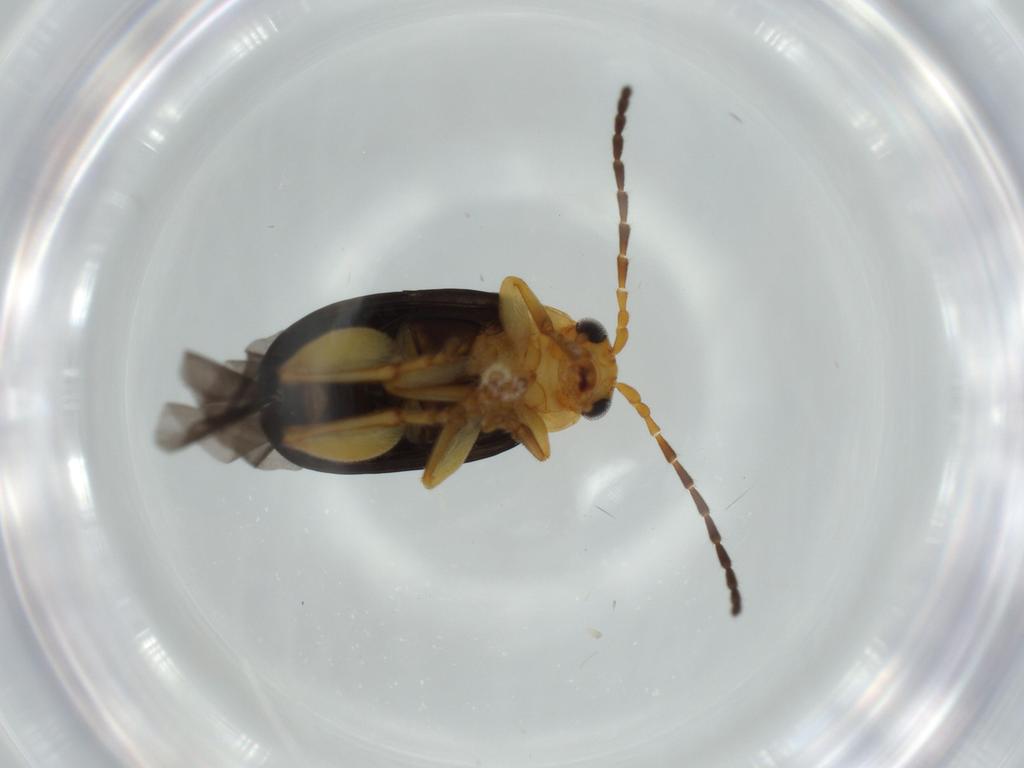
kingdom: Animalia
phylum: Arthropoda
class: Insecta
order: Coleoptera
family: Chrysomelidae
